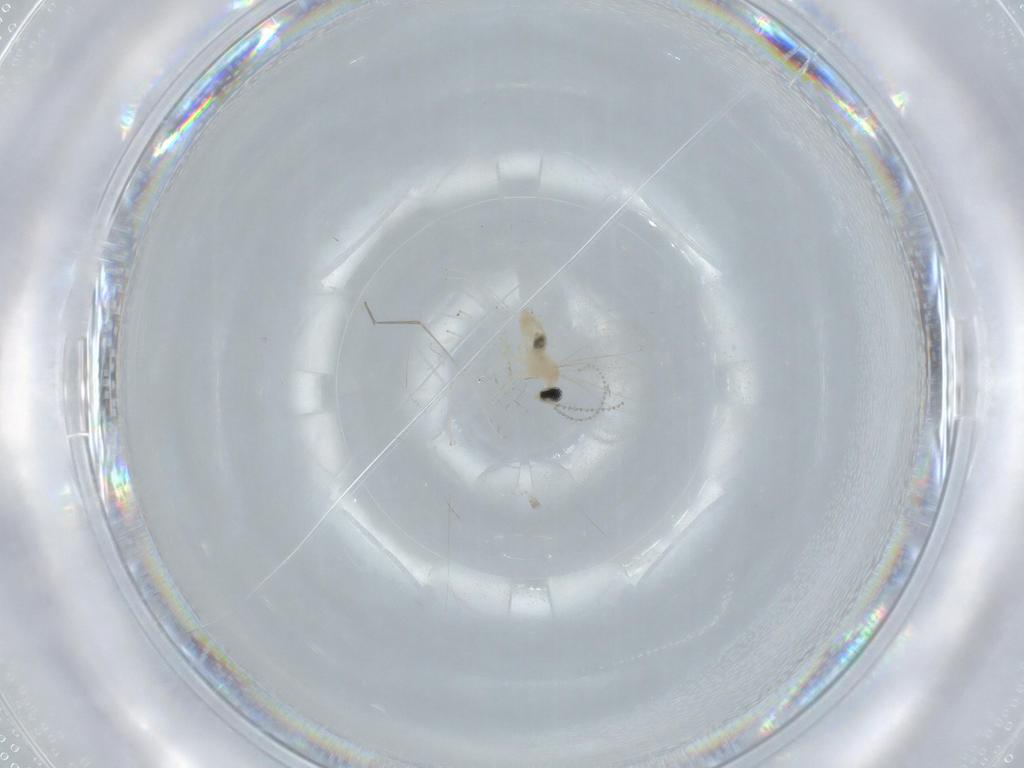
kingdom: Animalia
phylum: Arthropoda
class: Insecta
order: Diptera
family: Cecidomyiidae
